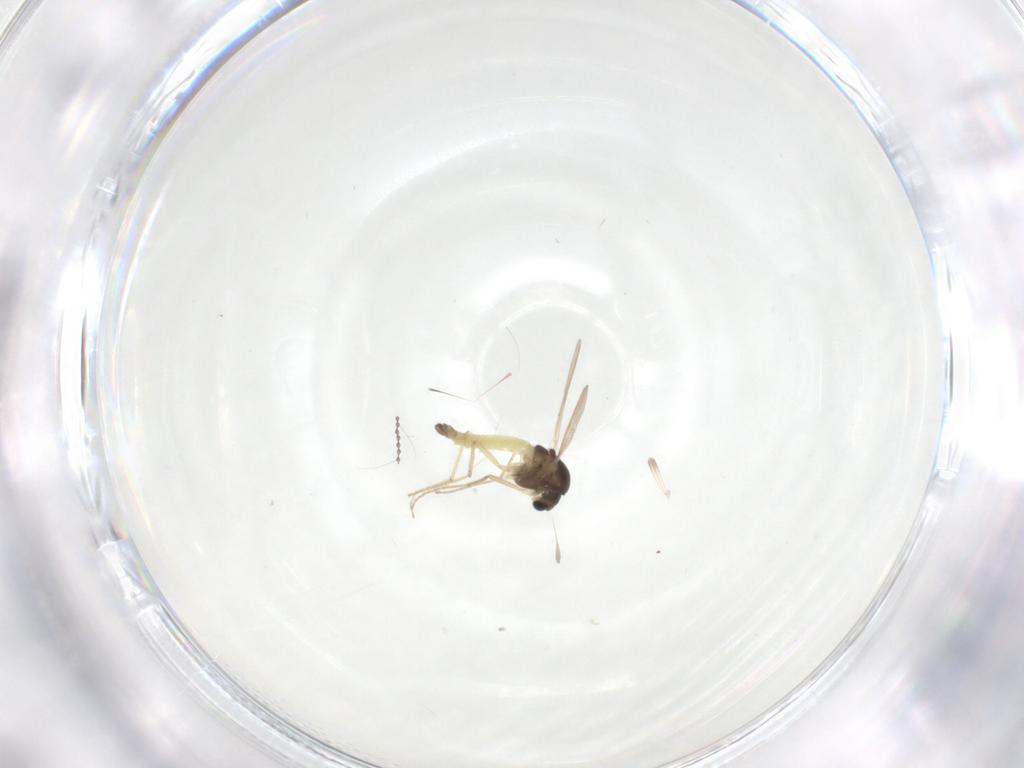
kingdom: Animalia
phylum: Arthropoda
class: Insecta
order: Diptera
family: Cecidomyiidae
